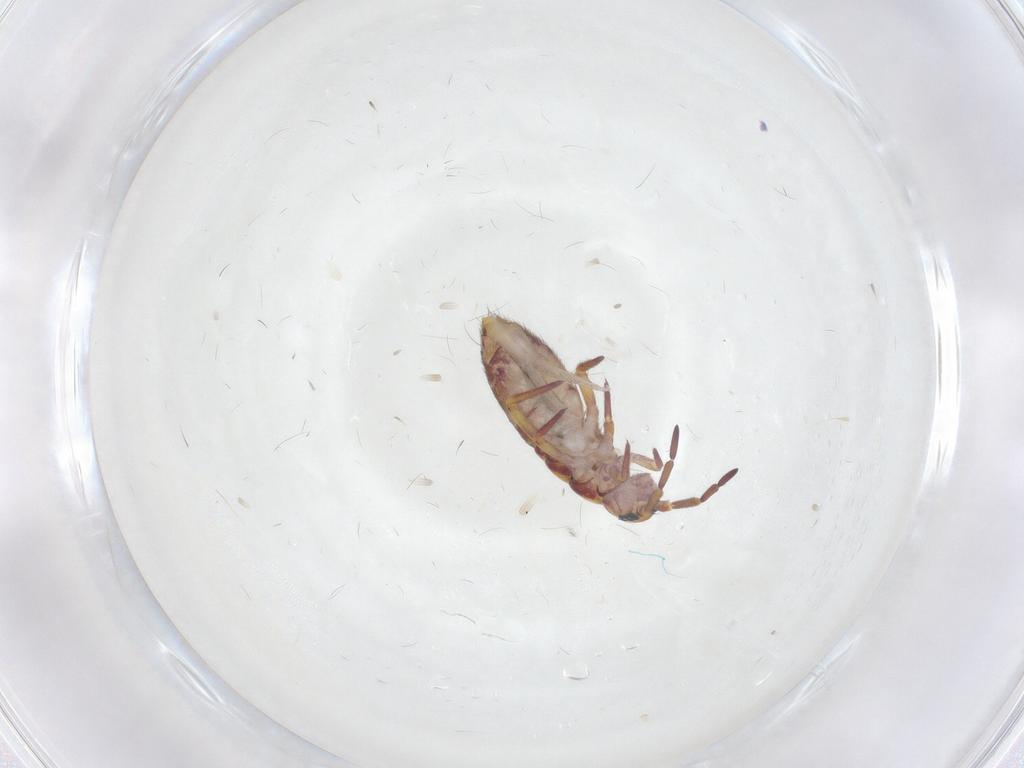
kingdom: Animalia
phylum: Arthropoda
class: Collembola
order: Entomobryomorpha
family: Isotomidae
